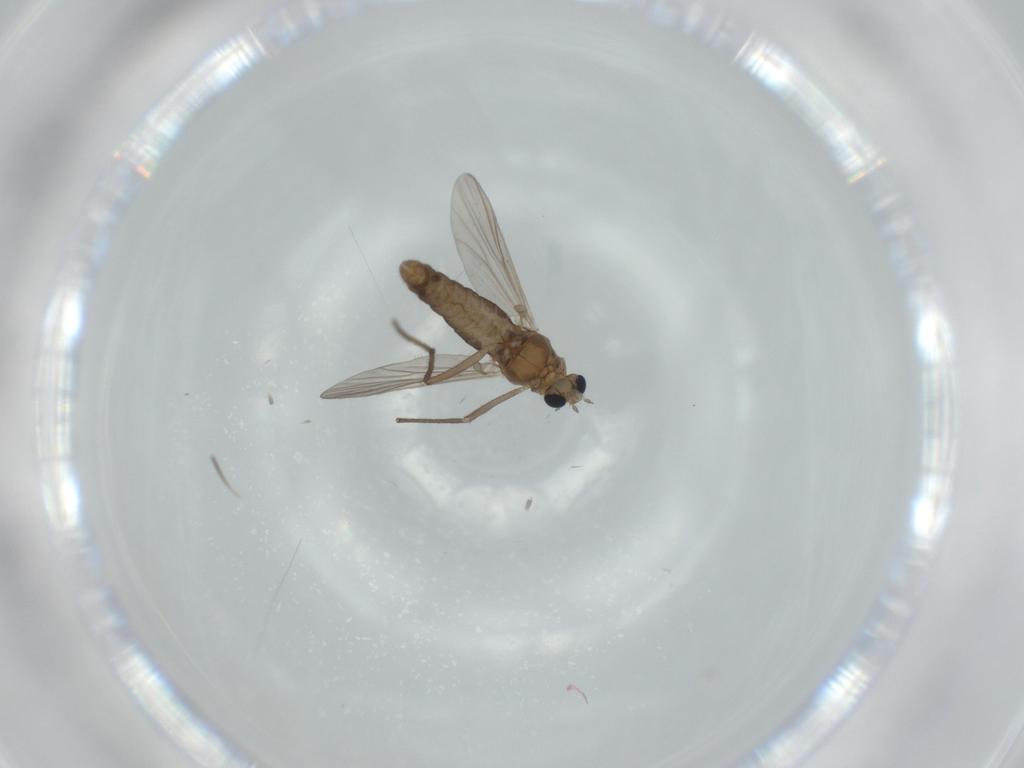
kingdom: Animalia
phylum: Arthropoda
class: Insecta
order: Diptera
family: Chironomidae
